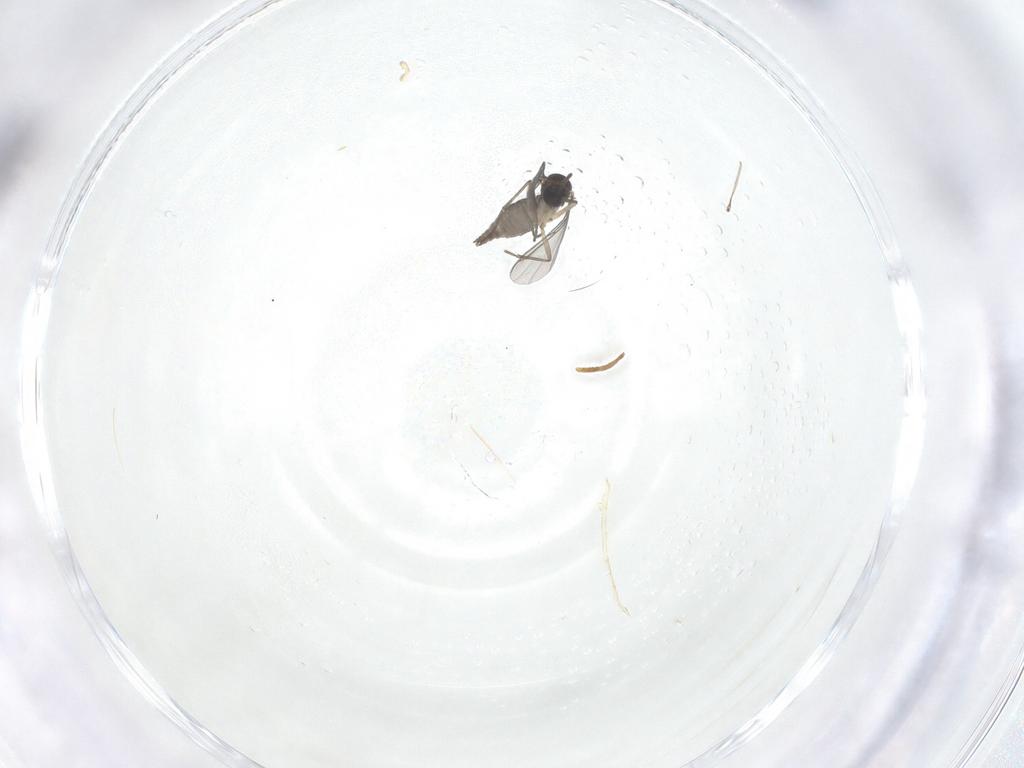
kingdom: Animalia
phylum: Arthropoda
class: Insecta
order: Diptera
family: Sciaridae
